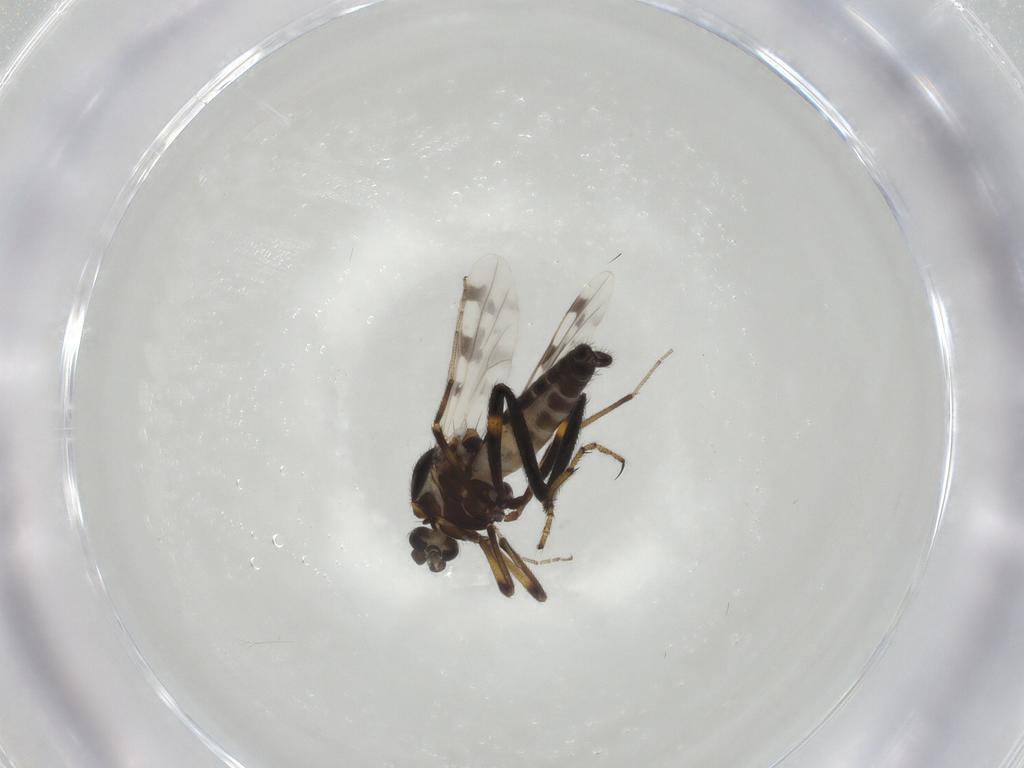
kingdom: Animalia
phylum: Arthropoda
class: Insecta
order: Diptera
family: Ceratopogonidae
